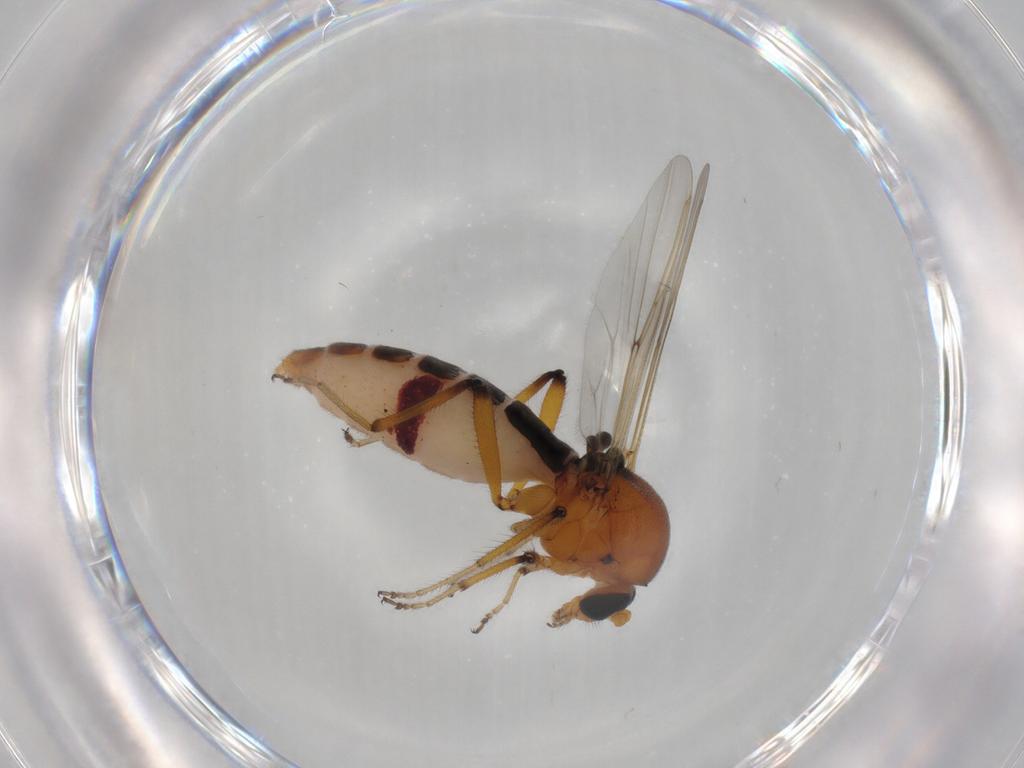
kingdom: Animalia
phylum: Arthropoda
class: Insecta
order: Diptera
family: Ceratopogonidae
